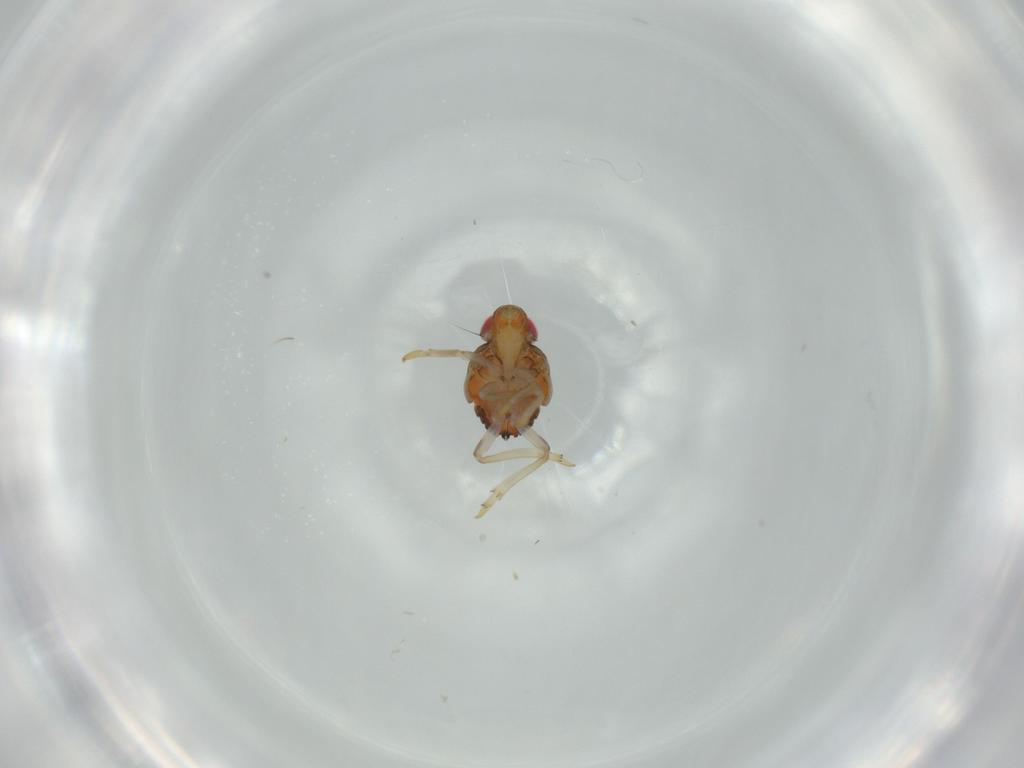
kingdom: Animalia
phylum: Arthropoda
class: Insecta
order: Hemiptera
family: Issidae
